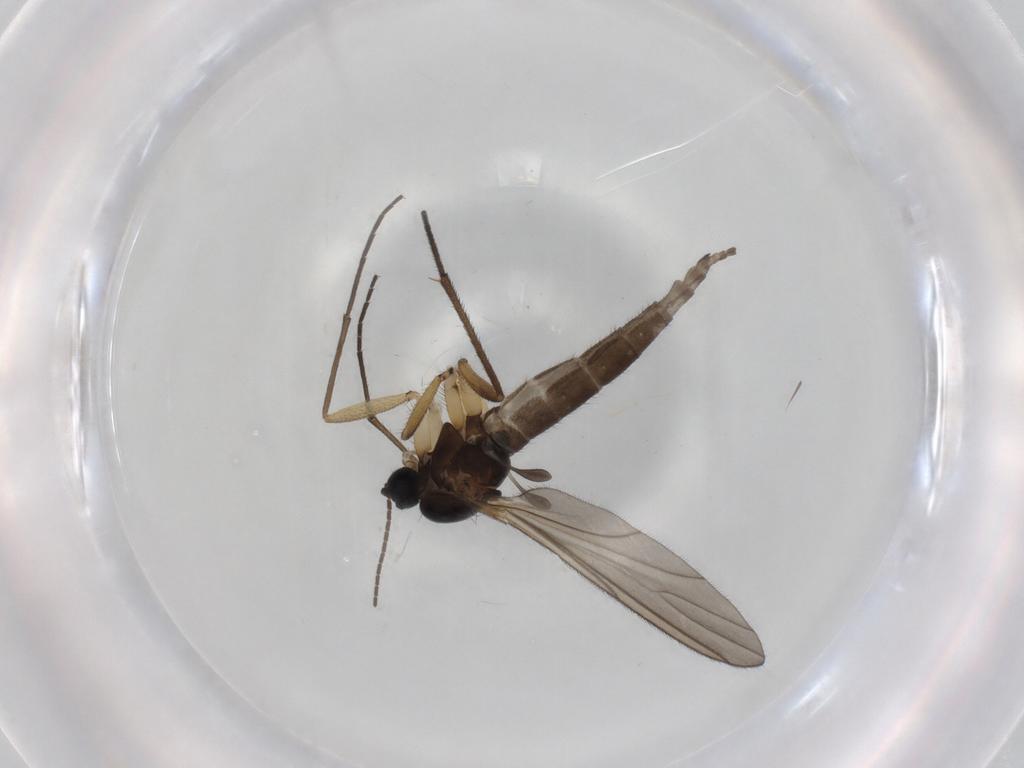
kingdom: Animalia
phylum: Arthropoda
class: Insecta
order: Diptera
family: Sciaridae
